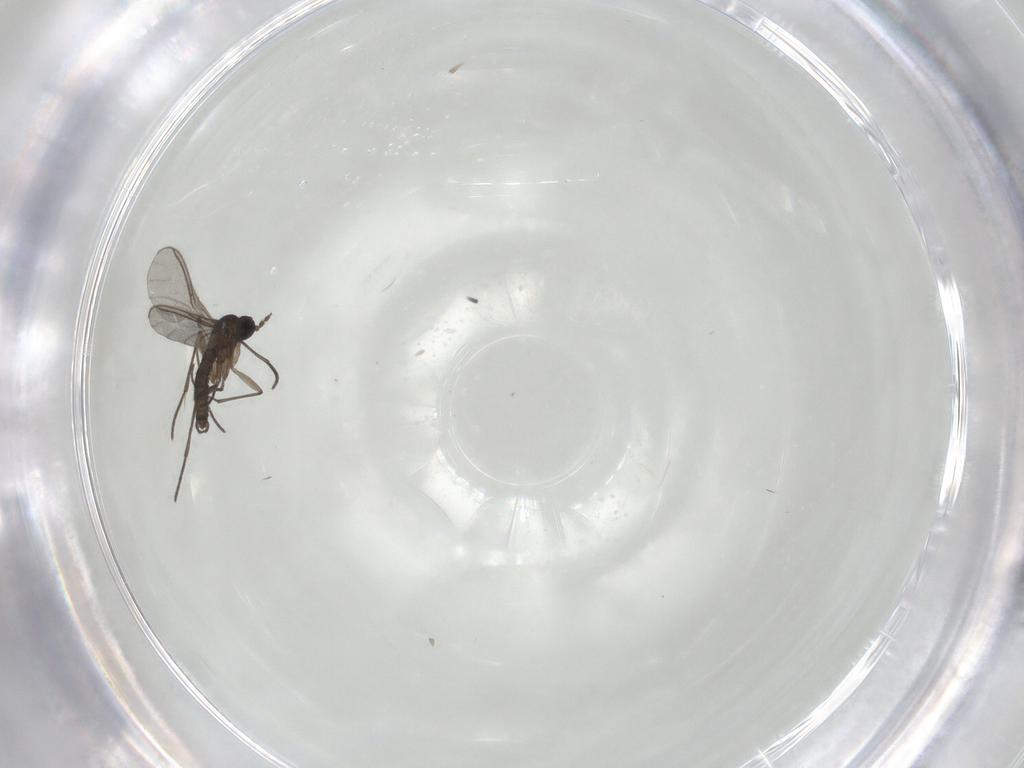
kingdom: Animalia
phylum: Arthropoda
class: Insecta
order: Diptera
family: Sciaridae
